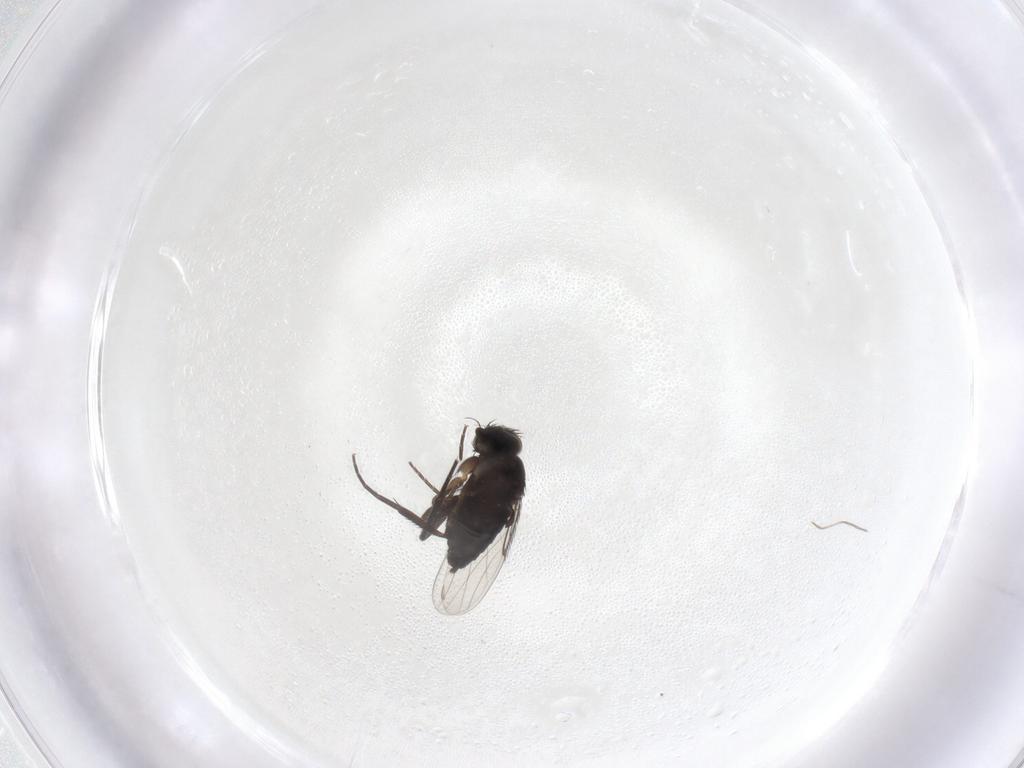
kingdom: Animalia
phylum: Arthropoda
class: Insecta
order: Diptera
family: Phoridae
